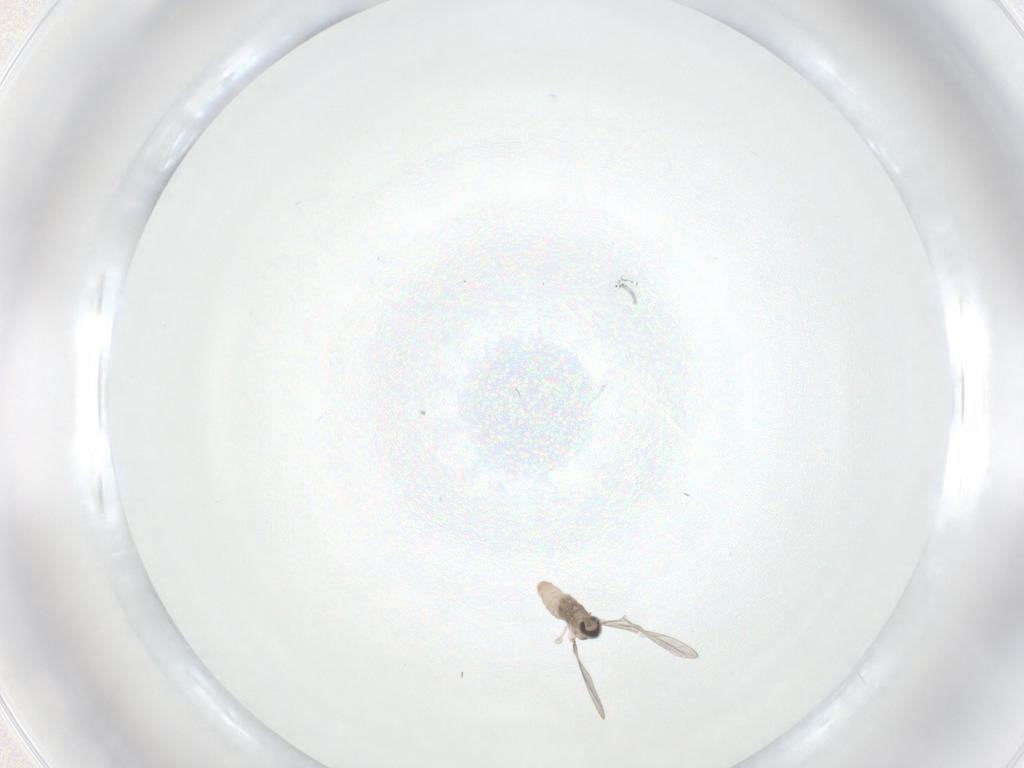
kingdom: Animalia
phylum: Arthropoda
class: Insecta
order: Diptera
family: Cecidomyiidae
